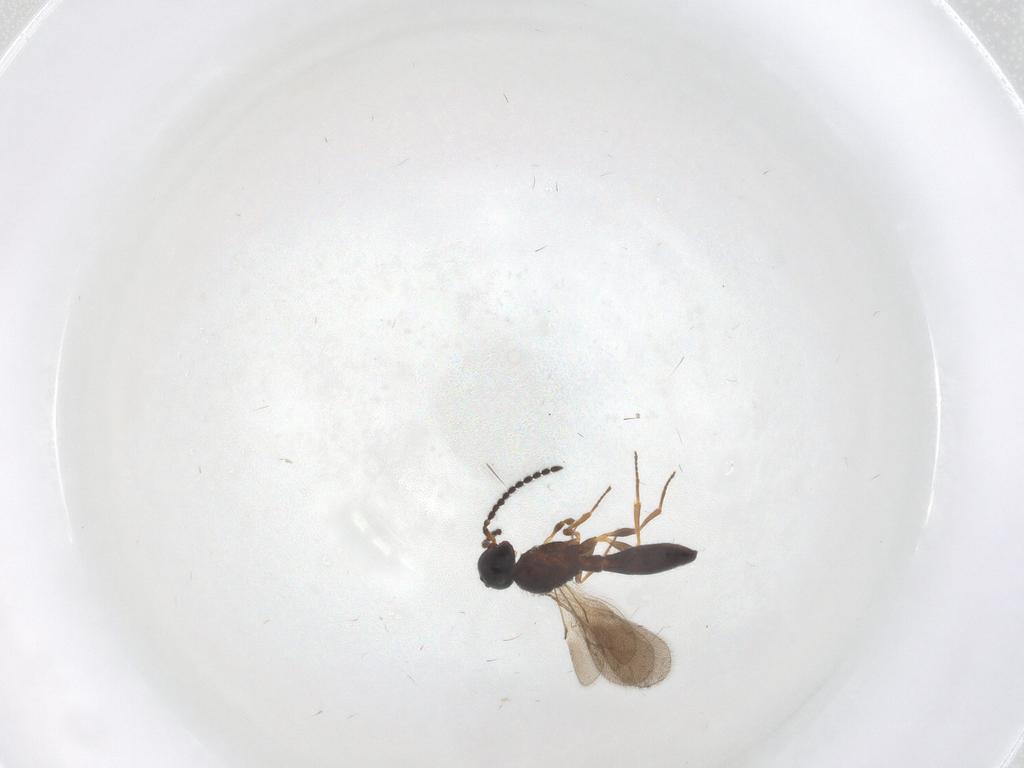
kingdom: Animalia
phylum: Arthropoda
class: Insecta
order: Hymenoptera
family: Scelionidae
